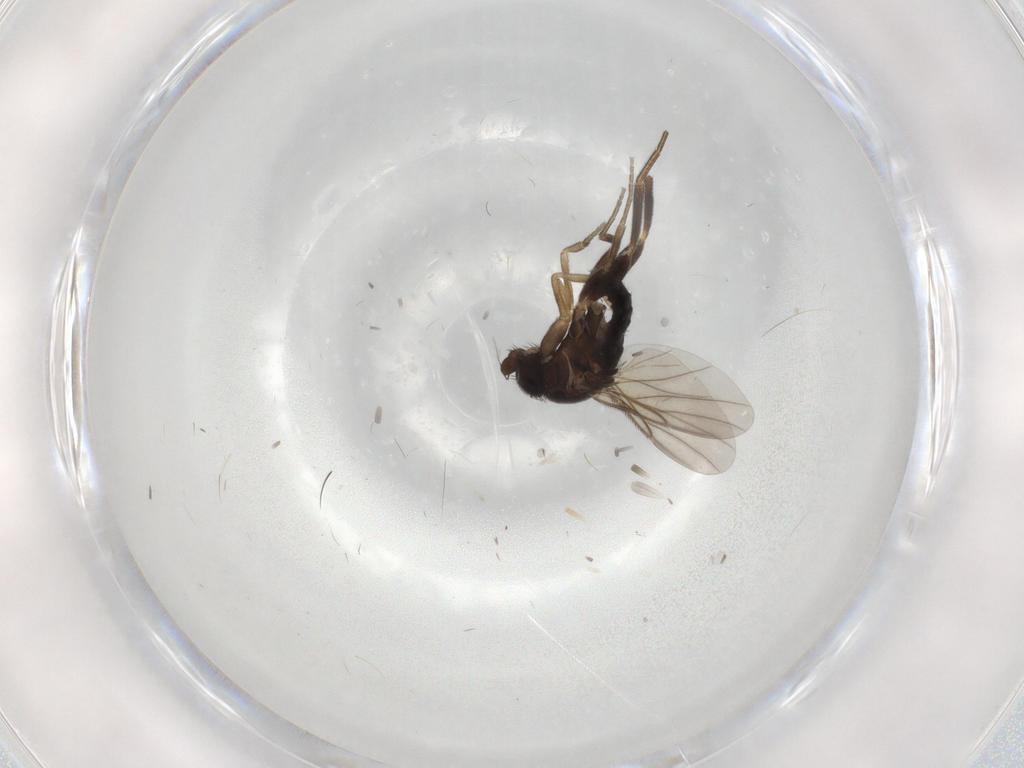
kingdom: Animalia
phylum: Arthropoda
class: Insecta
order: Diptera
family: Phoridae
